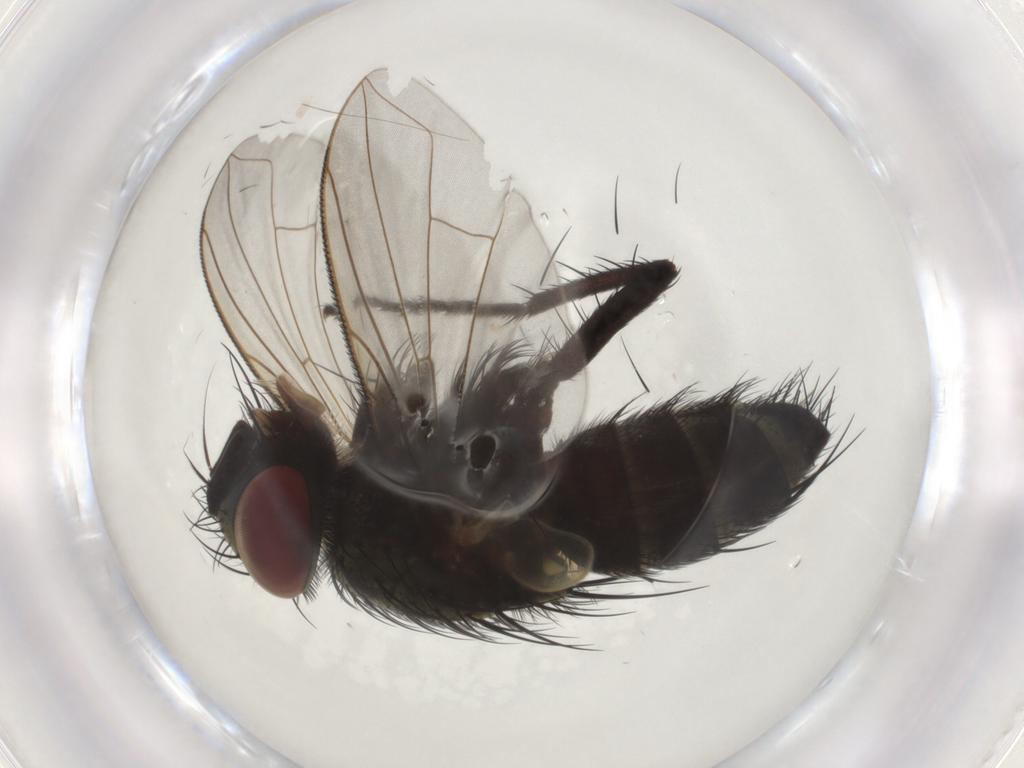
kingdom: Animalia
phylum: Arthropoda
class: Insecta
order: Diptera
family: Tachinidae
